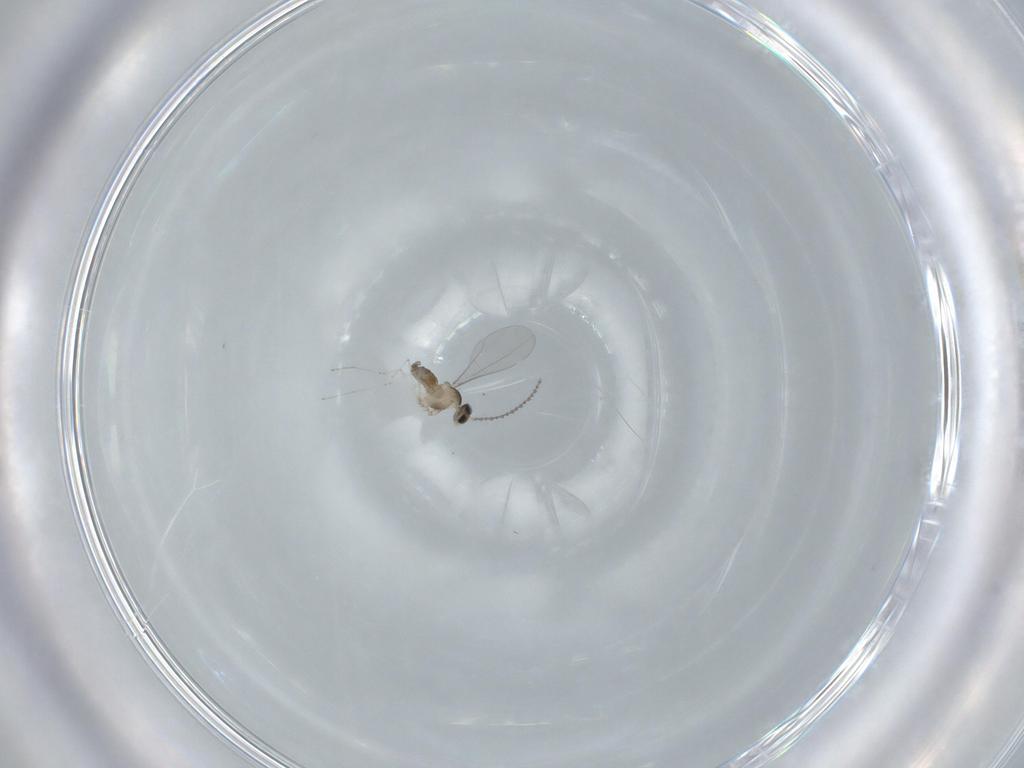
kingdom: Animalia
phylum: Arthropoda
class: Insecta
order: Diptera
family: Cecidomyiidae
